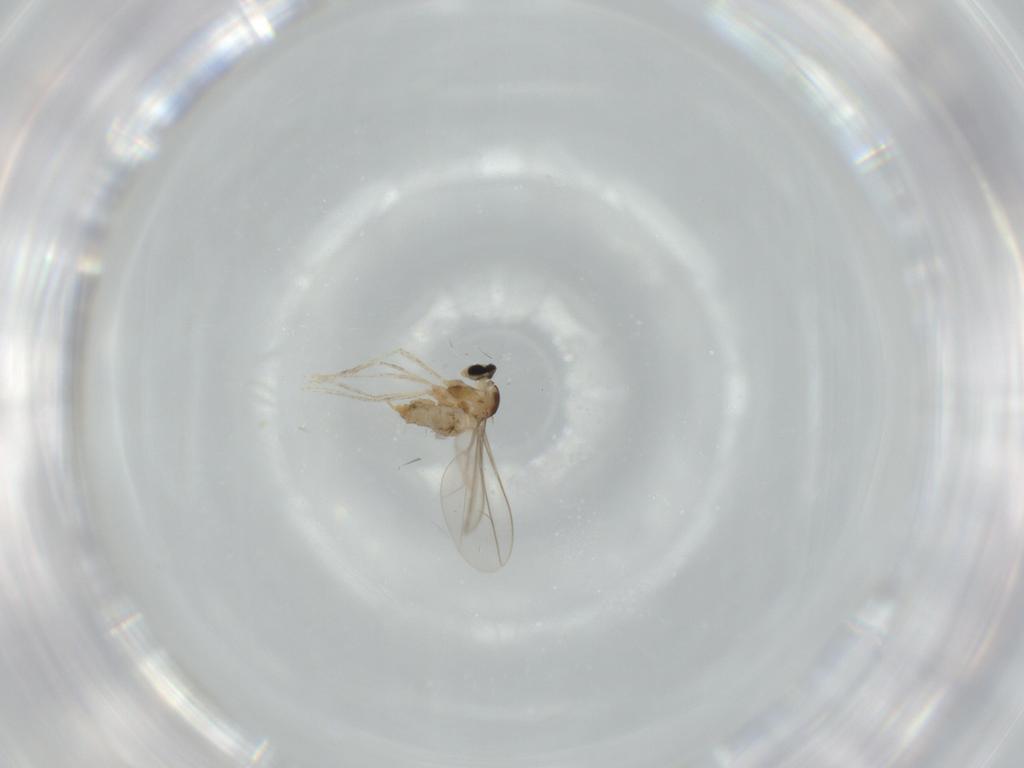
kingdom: Animalia
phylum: Arthropoda
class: Insecta
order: Diptera
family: Cecidomyiidae
